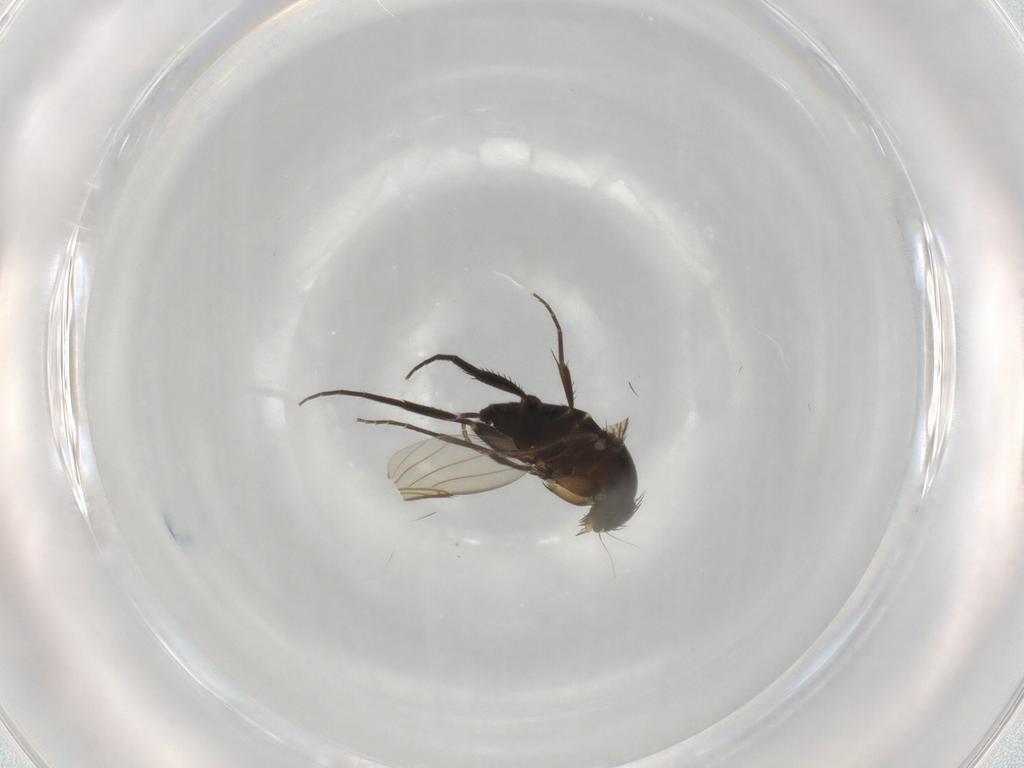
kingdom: Animalia
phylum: Arthropoda
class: Insecta
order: Diptera
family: Phoridae
